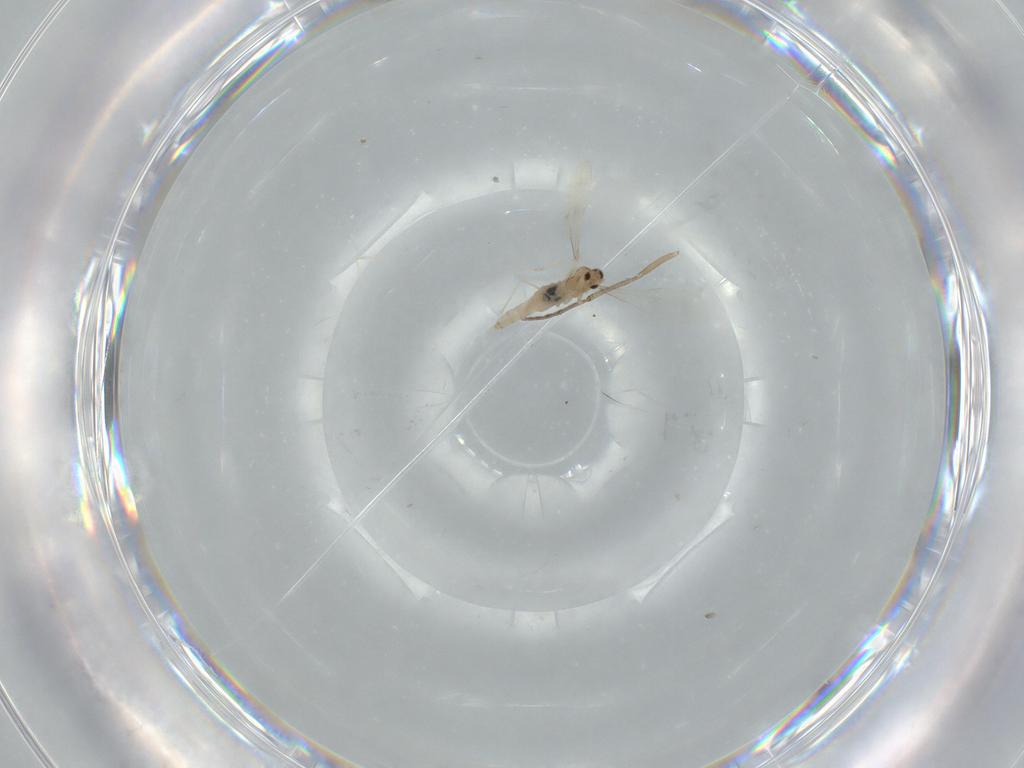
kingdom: Animalia
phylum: Arthropoda
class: Insecta
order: Diptera
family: Cecidomyiidae
